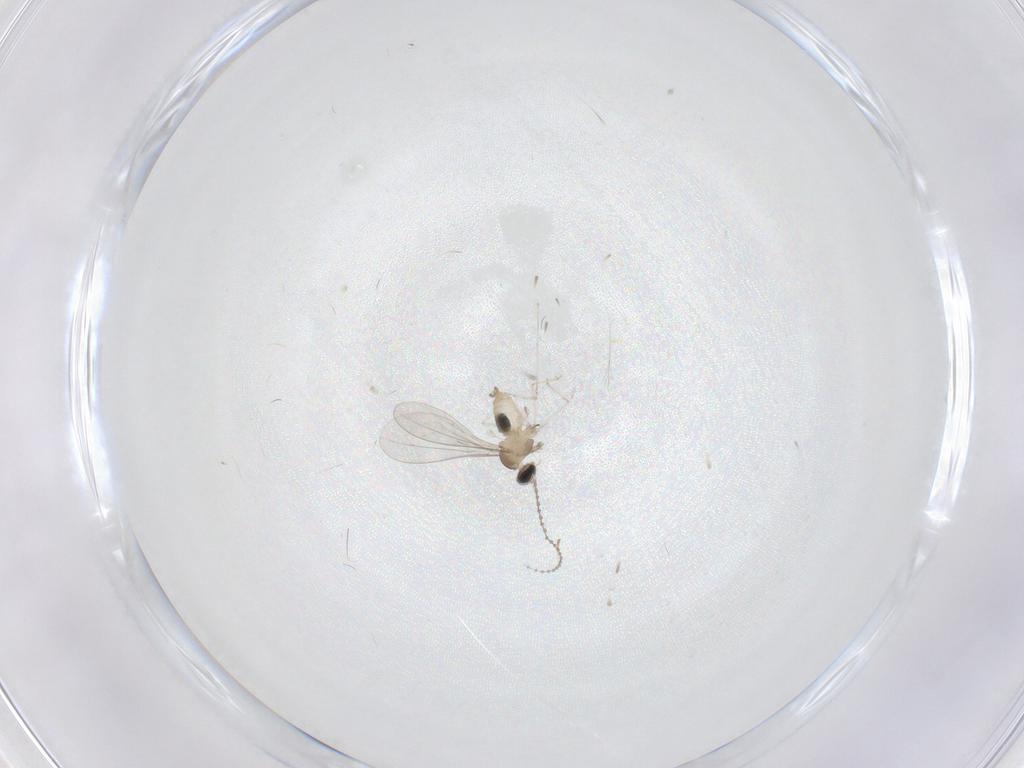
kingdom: Animalia
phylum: Arthropoda
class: Insecta
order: Diptera
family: Cecidomyiidae
